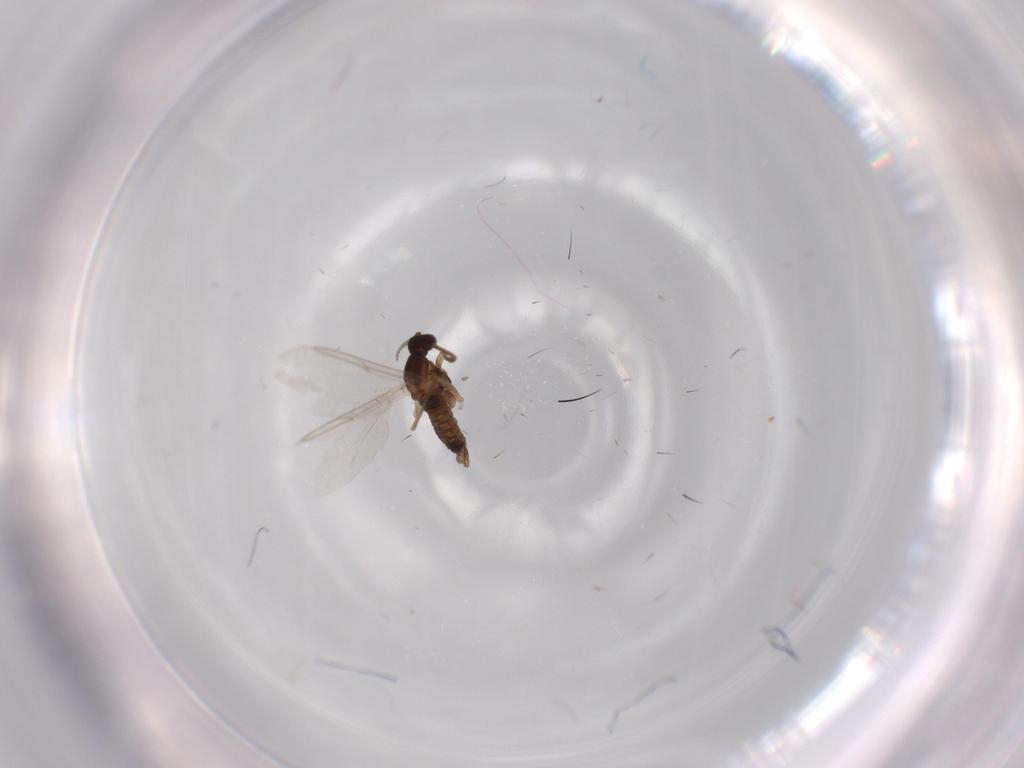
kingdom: Animalia
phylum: Arthropoda
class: Insecta
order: Diptera
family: Cecidomyiidae
